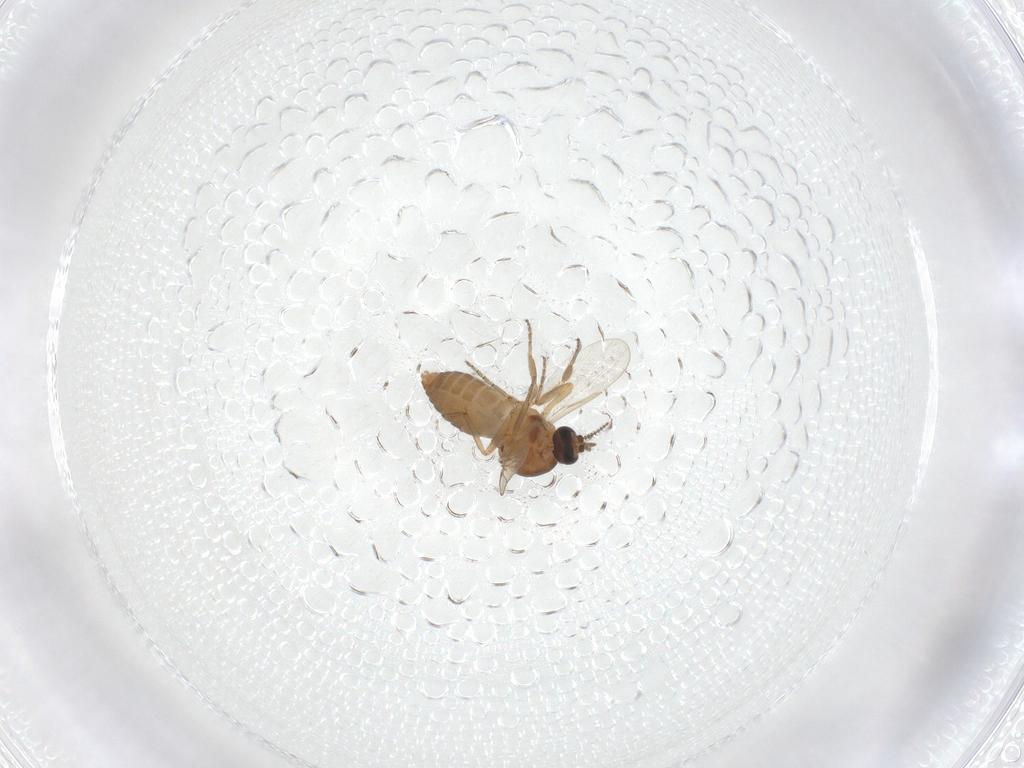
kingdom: Animalia
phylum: Arthropoda
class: Insecta
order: Diptera
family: Ceratopogonidae
